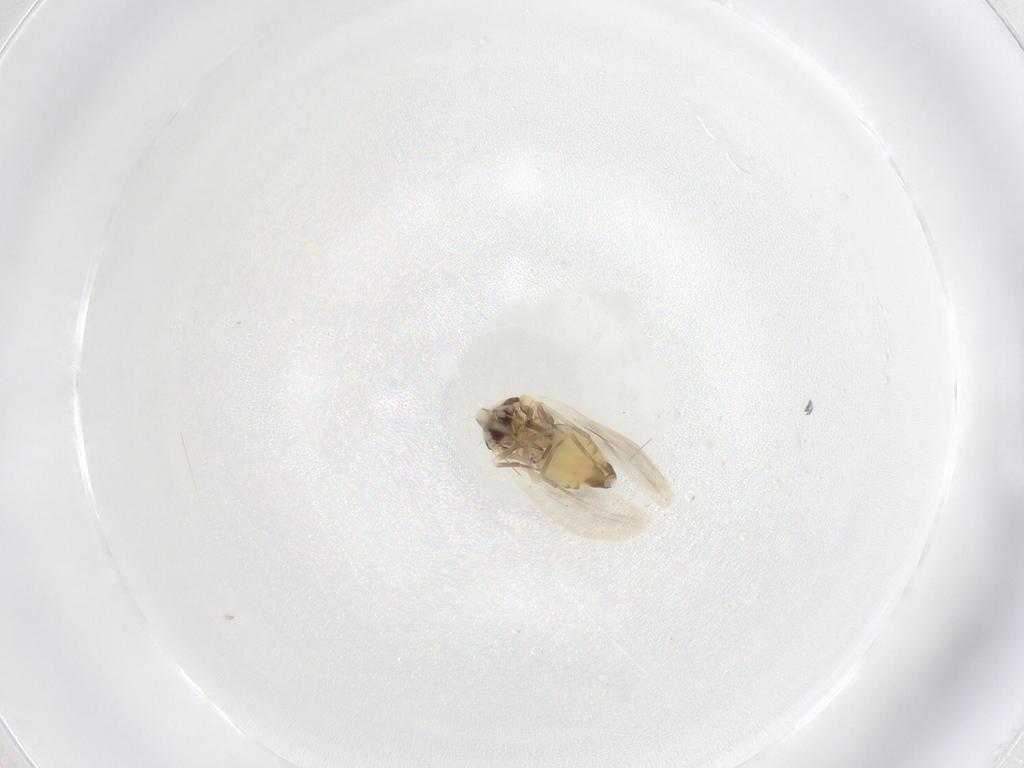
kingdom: Animalia
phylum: Arthropoda
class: Insecta
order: Hemiptera
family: Aleyrodidae
